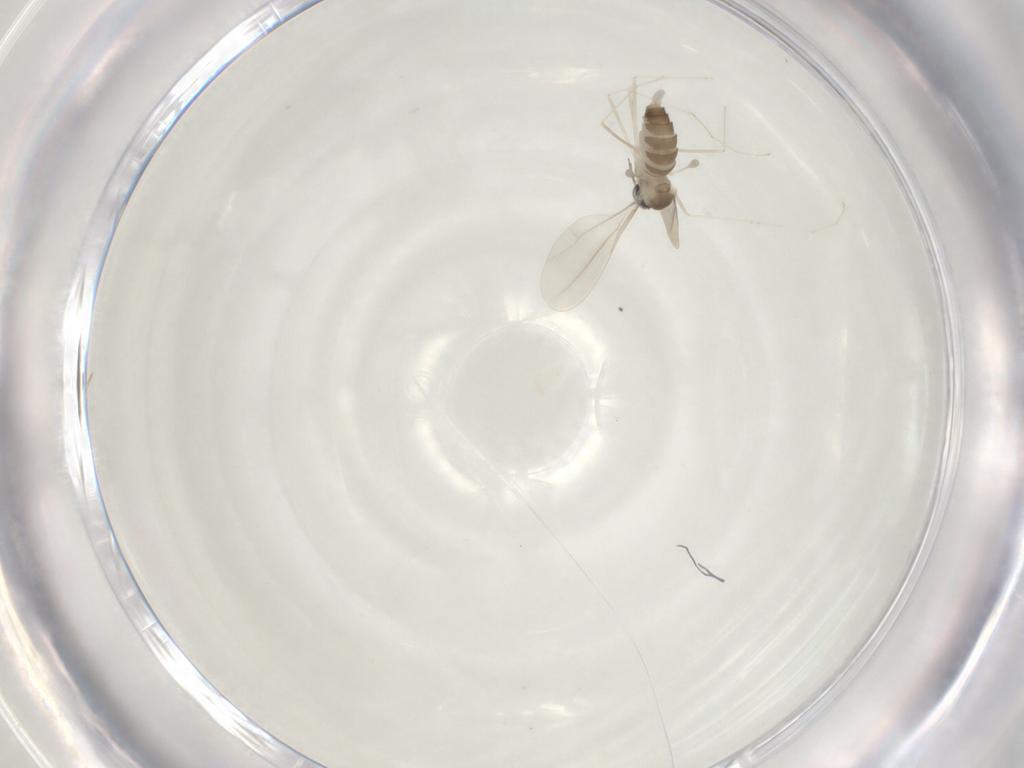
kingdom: Animalia
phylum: Arthropoda
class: Insecta
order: Diptera
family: Cecidomyiidae
